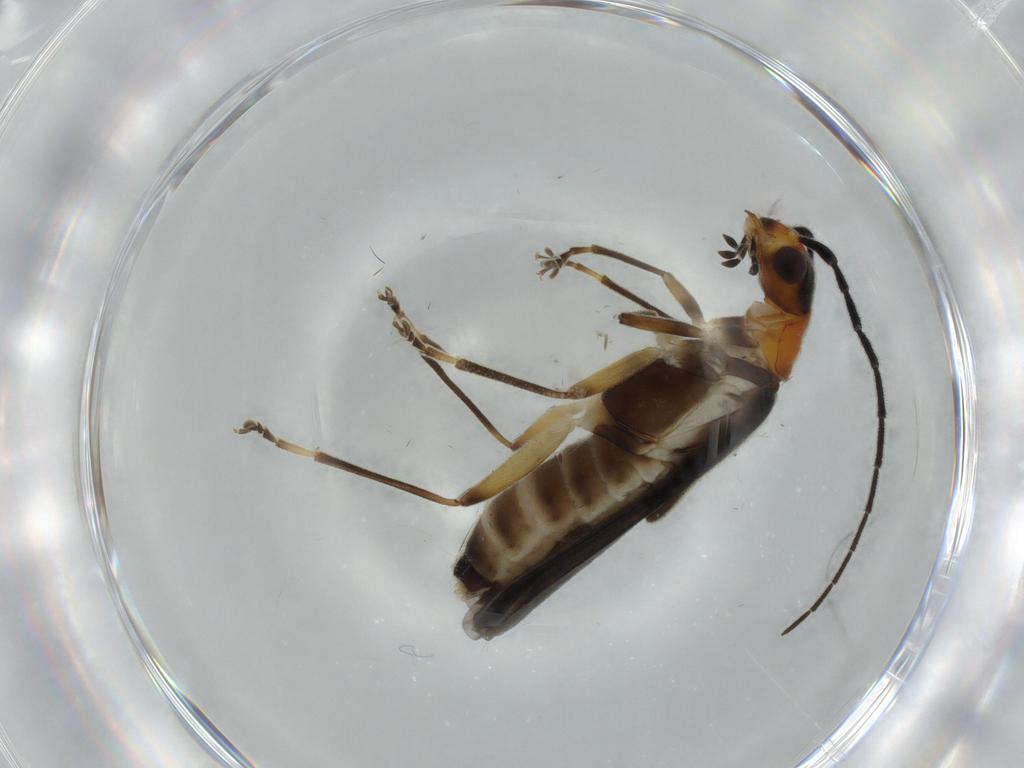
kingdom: Animalia
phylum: Arthropoda
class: Insecta
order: Coleoptera
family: Cantharidae
